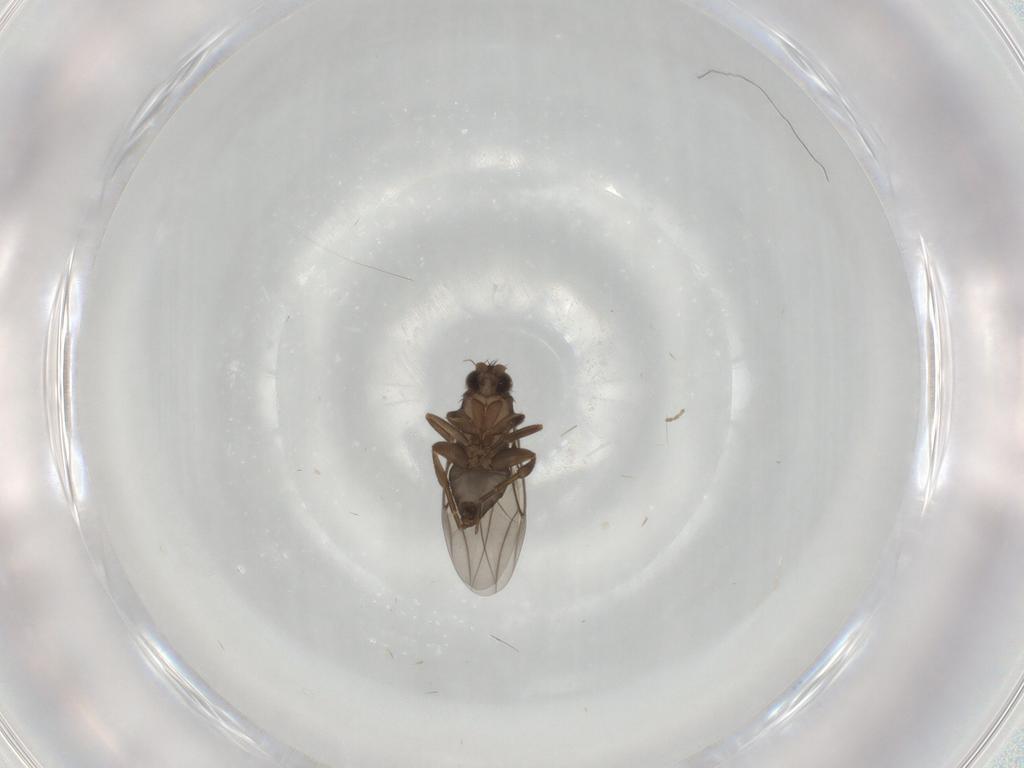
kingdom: Animalia
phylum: Arthropoda
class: Insecta
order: Diptera
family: Phoridae
